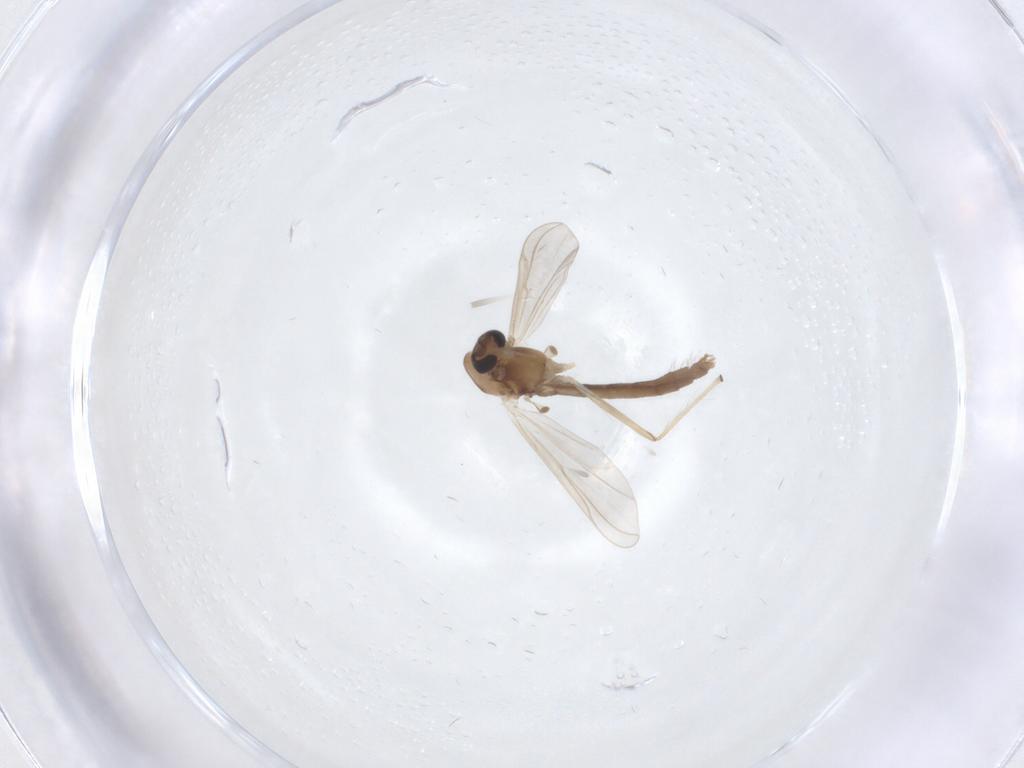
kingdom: Animalia
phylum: Arthropoda
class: Insecta
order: Diptera
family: Chironomidae
